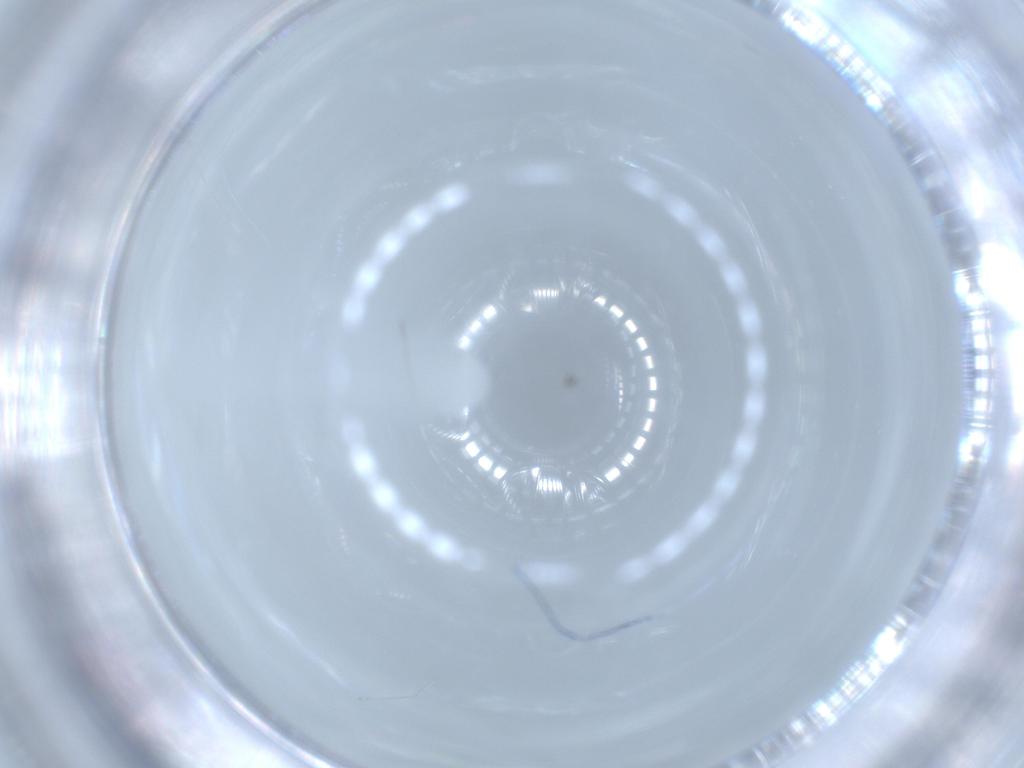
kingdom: Animalia
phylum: Arthropoda
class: Insecta
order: Diptera
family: Cecidomyiidae
